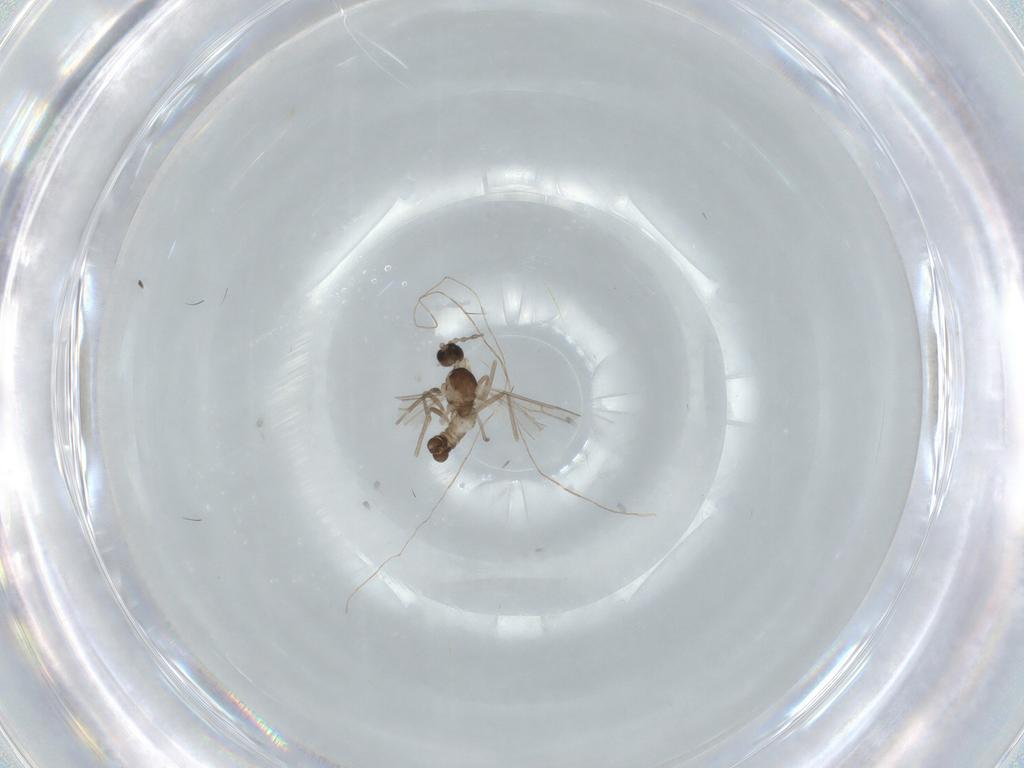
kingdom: Animalia
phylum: Arthropoda
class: Insecta
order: Diptera
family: Cecidomyiidae
